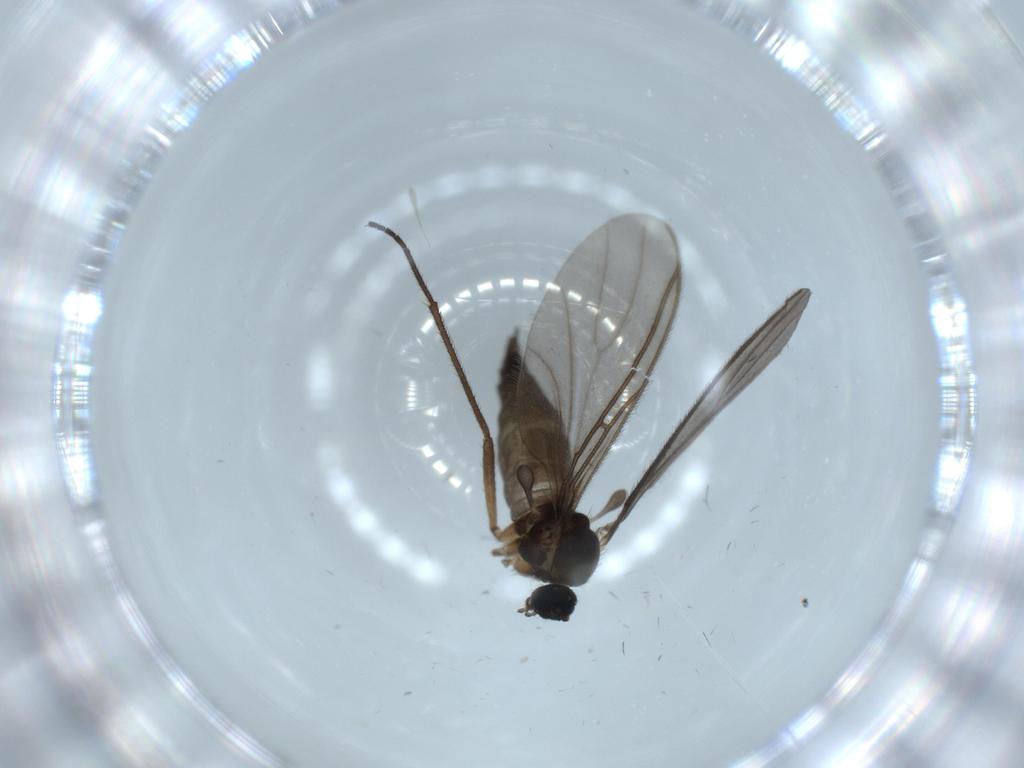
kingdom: Animalia
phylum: Arthropoda
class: Insecta
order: Diptera
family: Sciaridae
